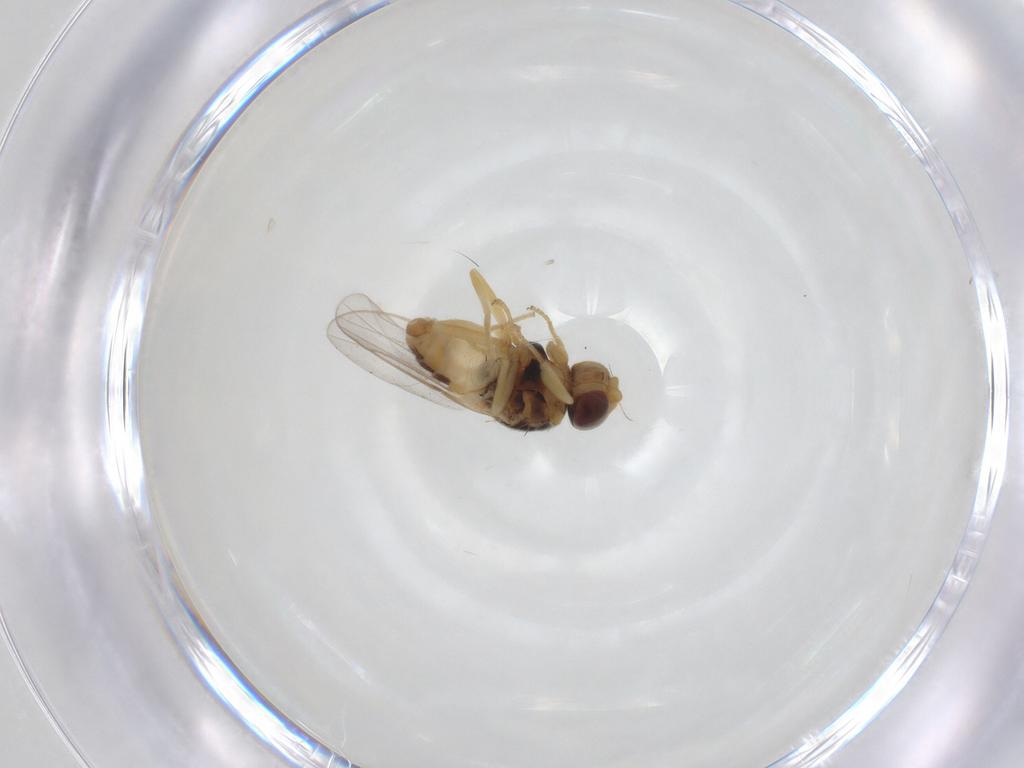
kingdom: Animalia
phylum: Arthropoda
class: Insecta
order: Diptera
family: Chloropidae
